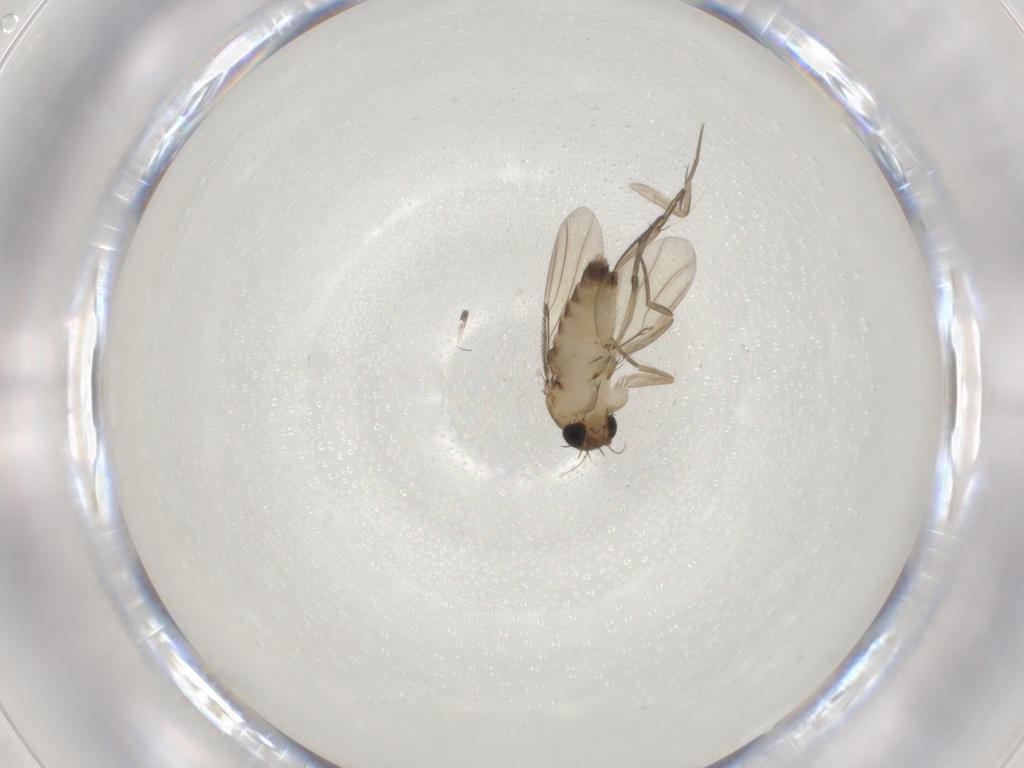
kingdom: Animalia
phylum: Arthropoda
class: Insecta
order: Diptera
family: Phoridae
